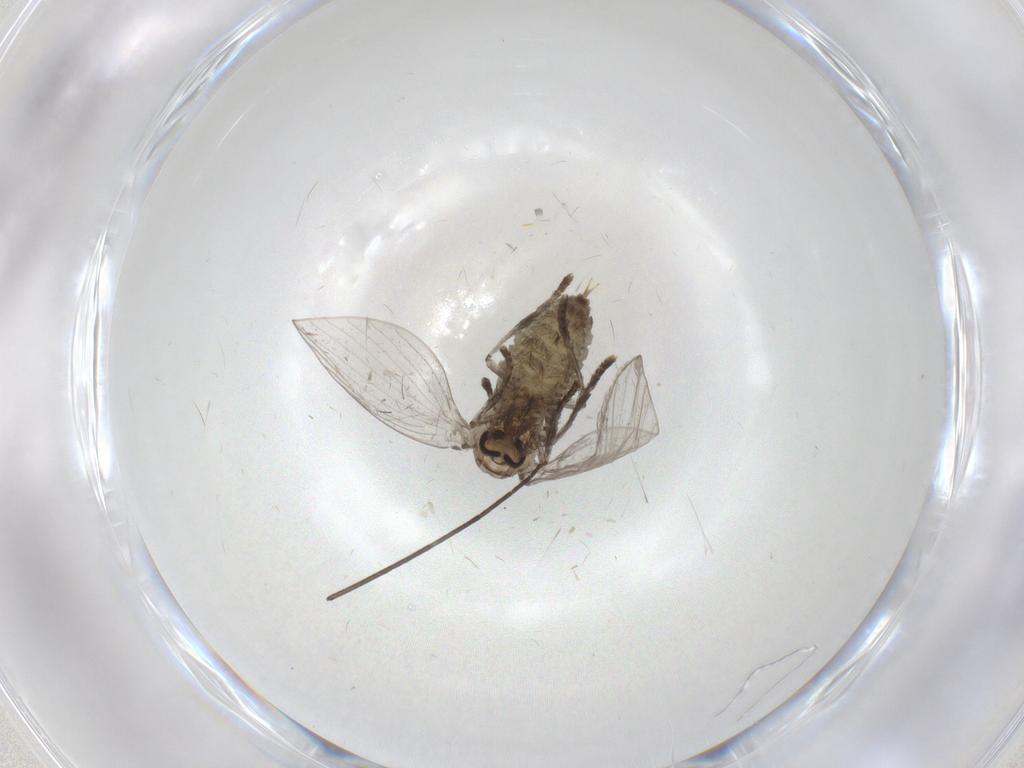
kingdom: Animalia
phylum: Arthropoda
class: Insecta
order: Diptera
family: Psychodidae
